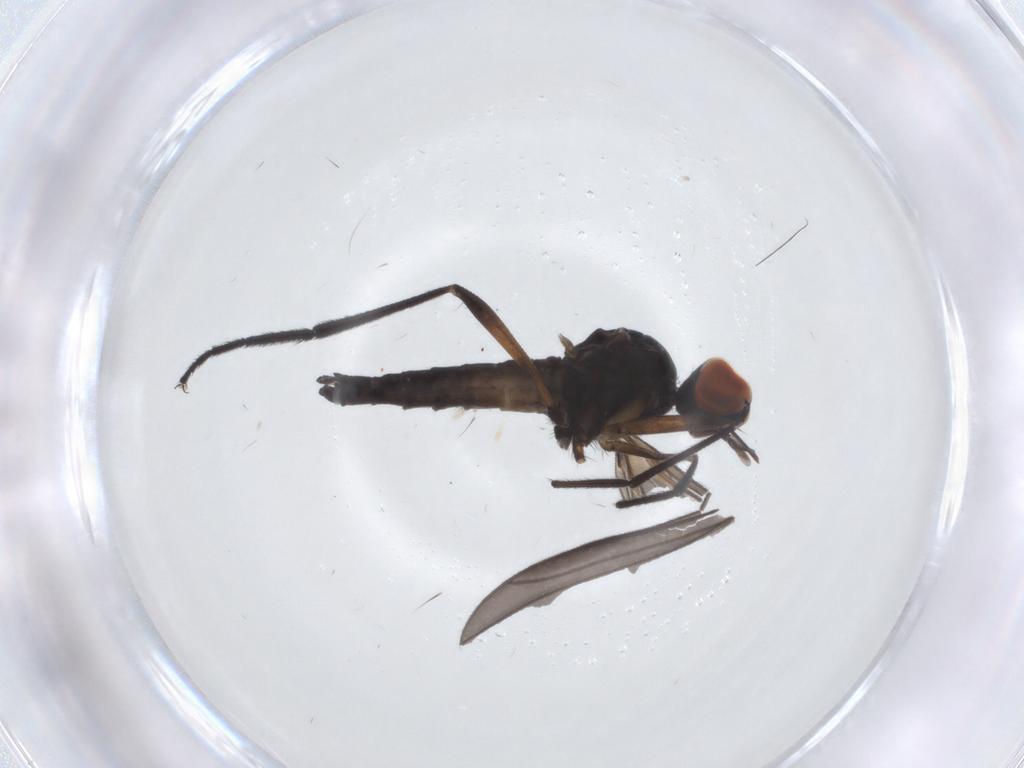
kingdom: Animalia
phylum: Arthropoda
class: Insecta
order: Diptera
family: Empididae
